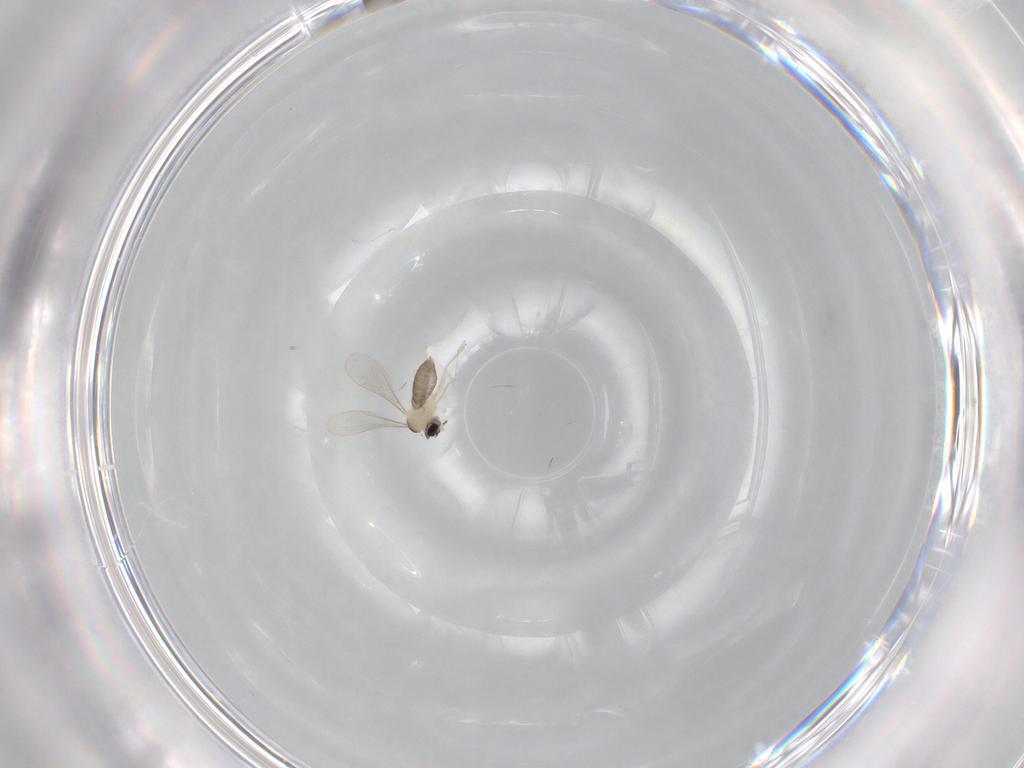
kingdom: Animalia
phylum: Arthropoda
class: Insecta
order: Diptera
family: Cecidomyiidae
